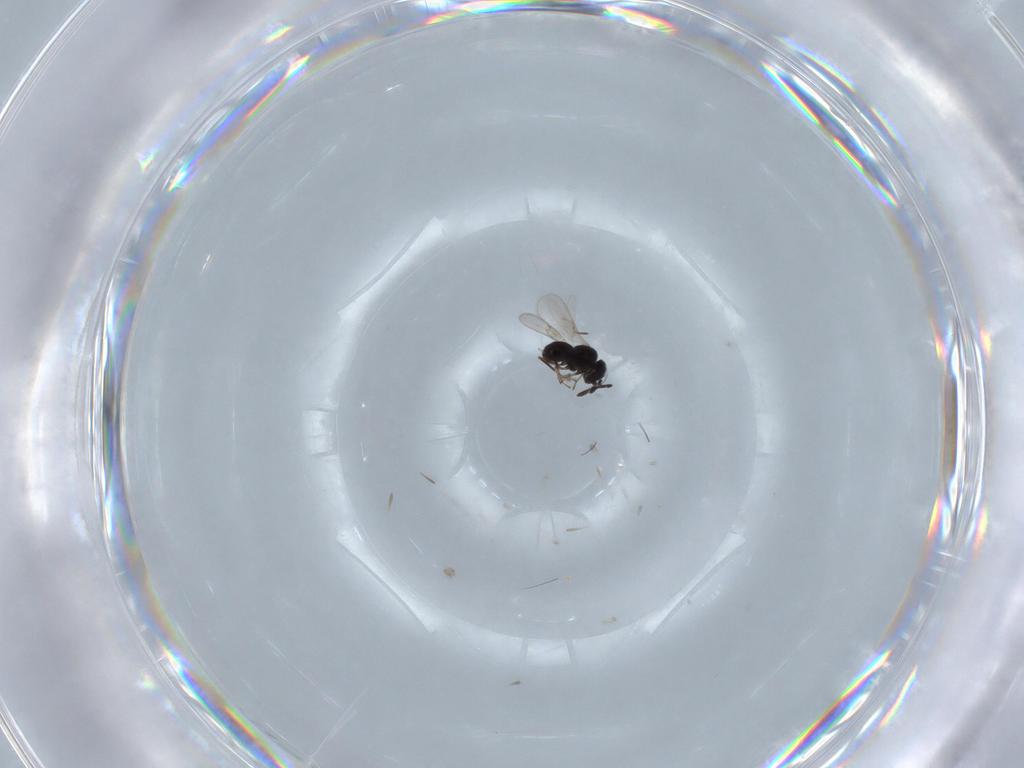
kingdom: Animalia
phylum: Arthropoda
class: Insecta
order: Hymenoptera
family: Scelionidae
